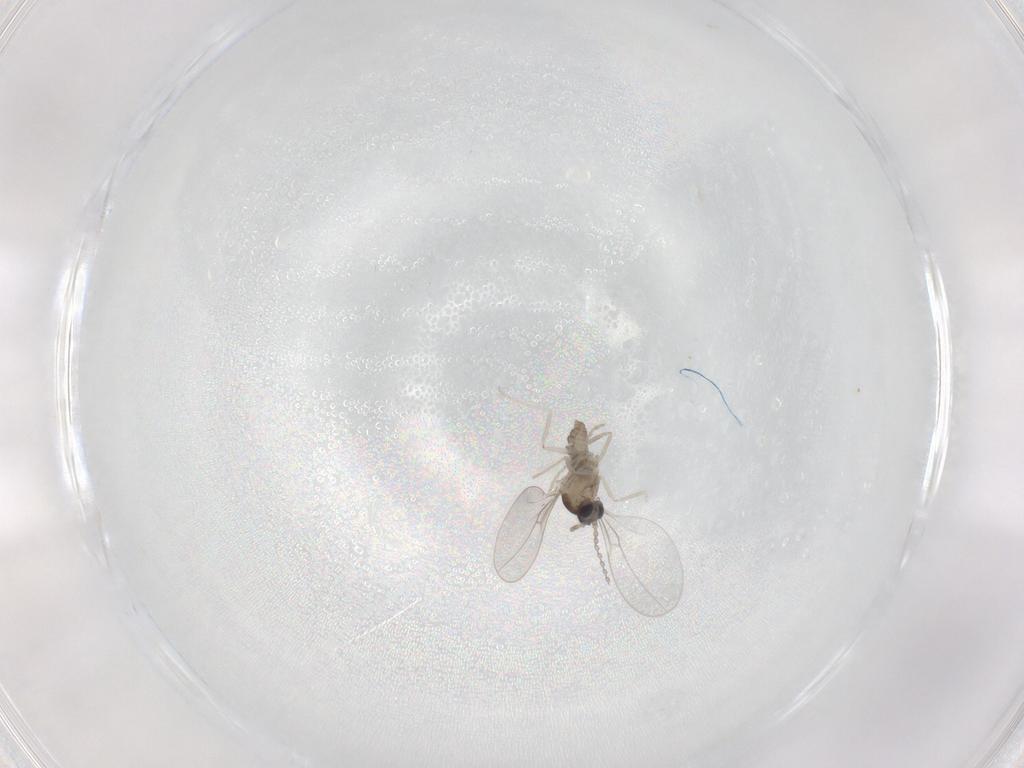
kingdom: Animalia
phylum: Arthropoda
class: Insecta
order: Diptera
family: Cecidomyiidae
